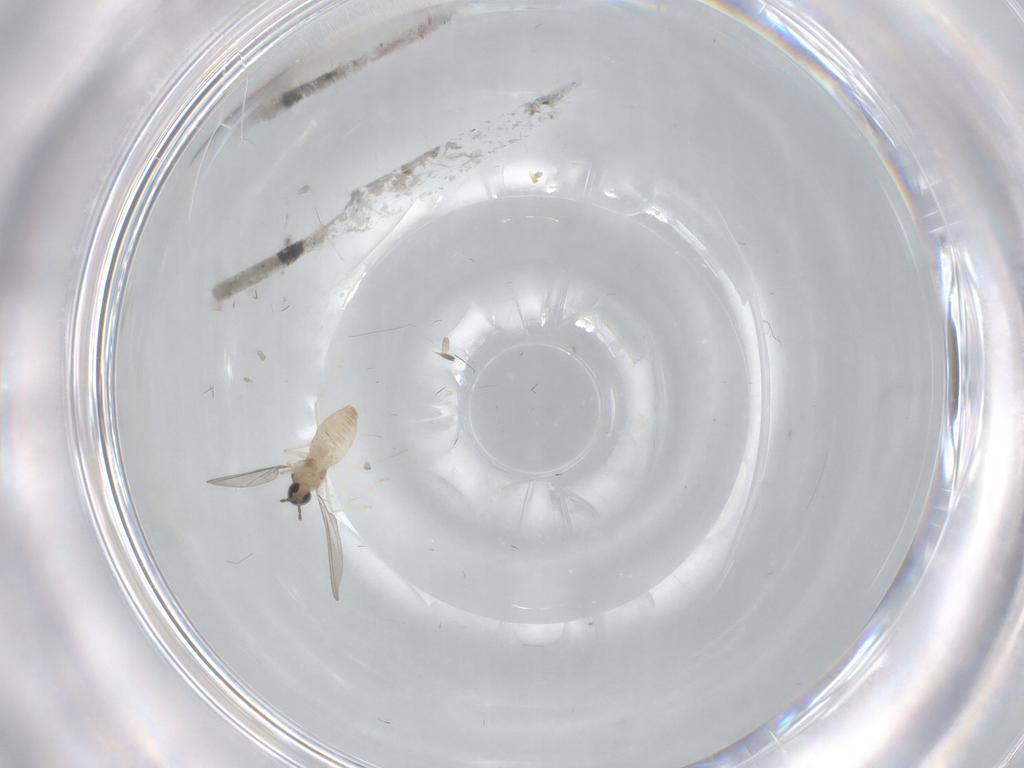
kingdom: Animalia
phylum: Arthropoda
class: Insecta
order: Diptera
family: Cecidomyiidae
